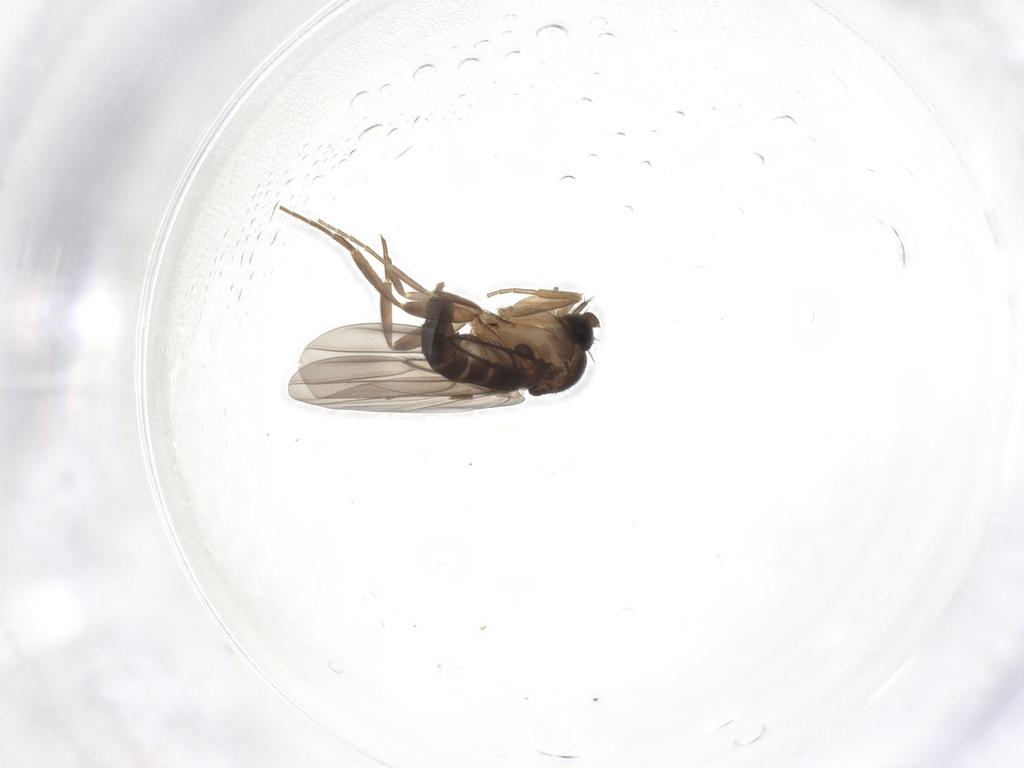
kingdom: Animalia
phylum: Arthropoda
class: Insecta
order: Diptera
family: Phoridae
